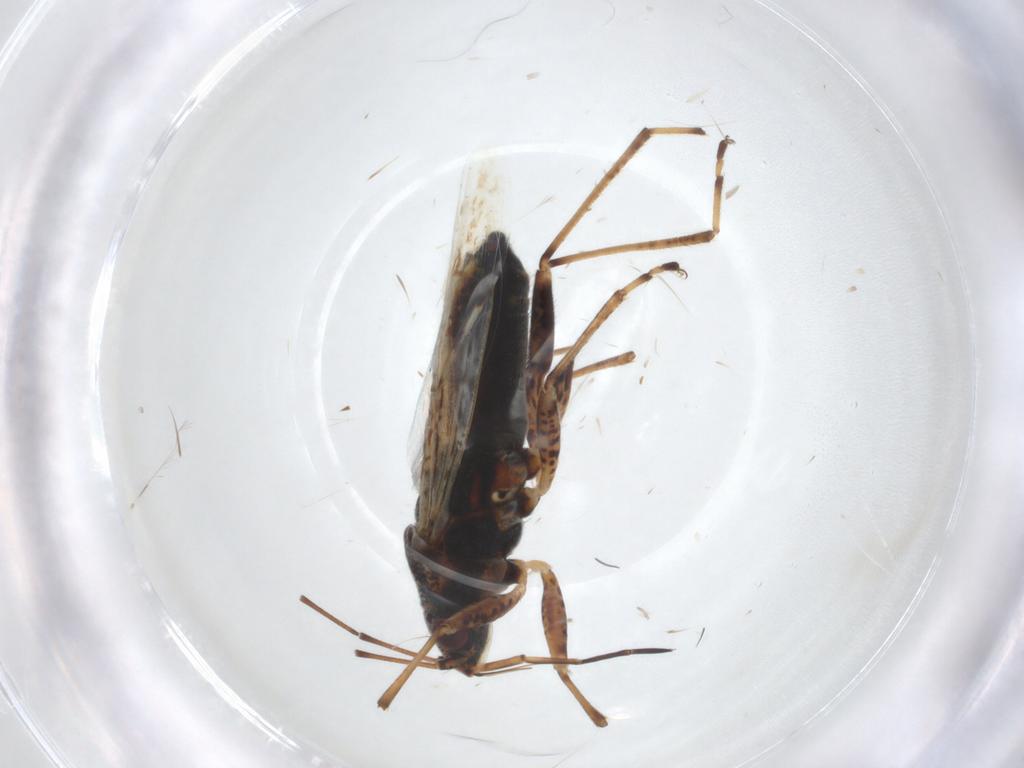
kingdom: Animalia
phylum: Arthropoda
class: Insecta
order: Hemiptera
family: Lygaeidae
